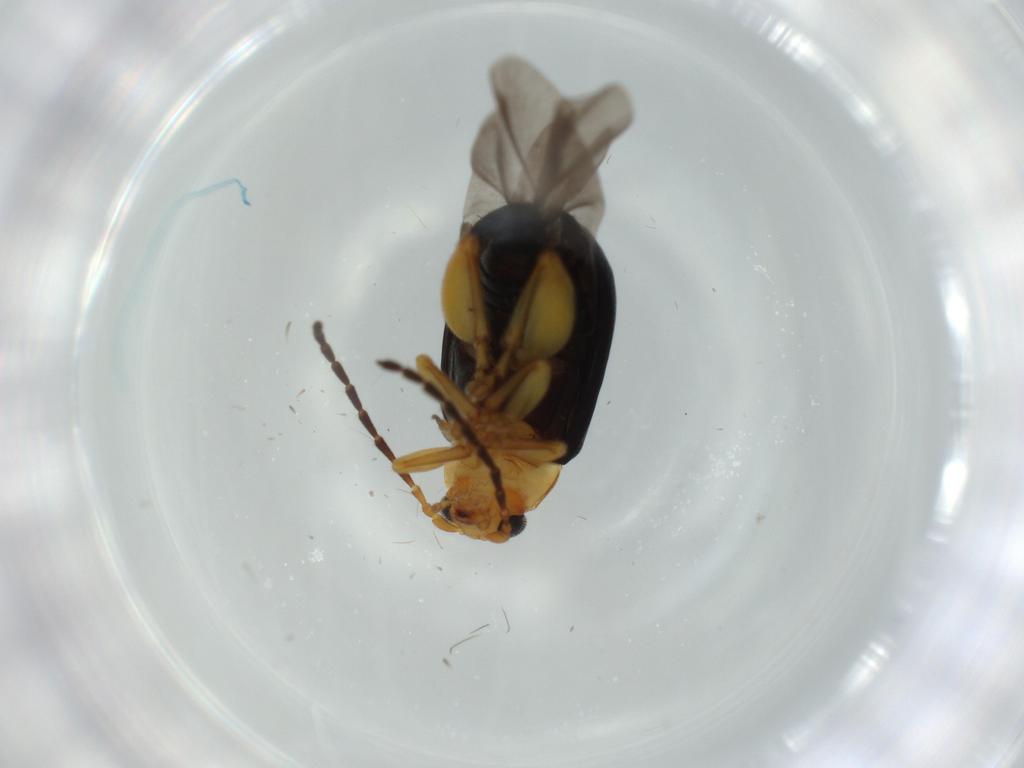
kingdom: Animalia
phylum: Arthropoda
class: Insecta
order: Coleoptera
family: Chrysomelidae
